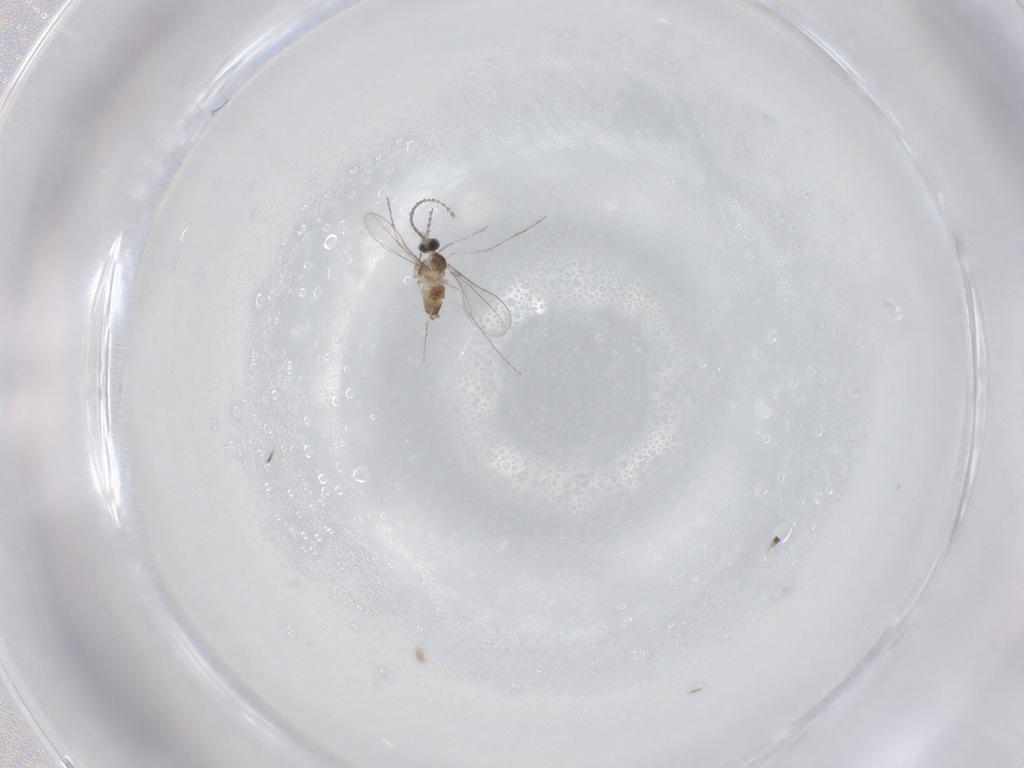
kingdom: Animalia
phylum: Arthropoda
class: Insecta
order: Diptera
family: Cecidomyiidae
